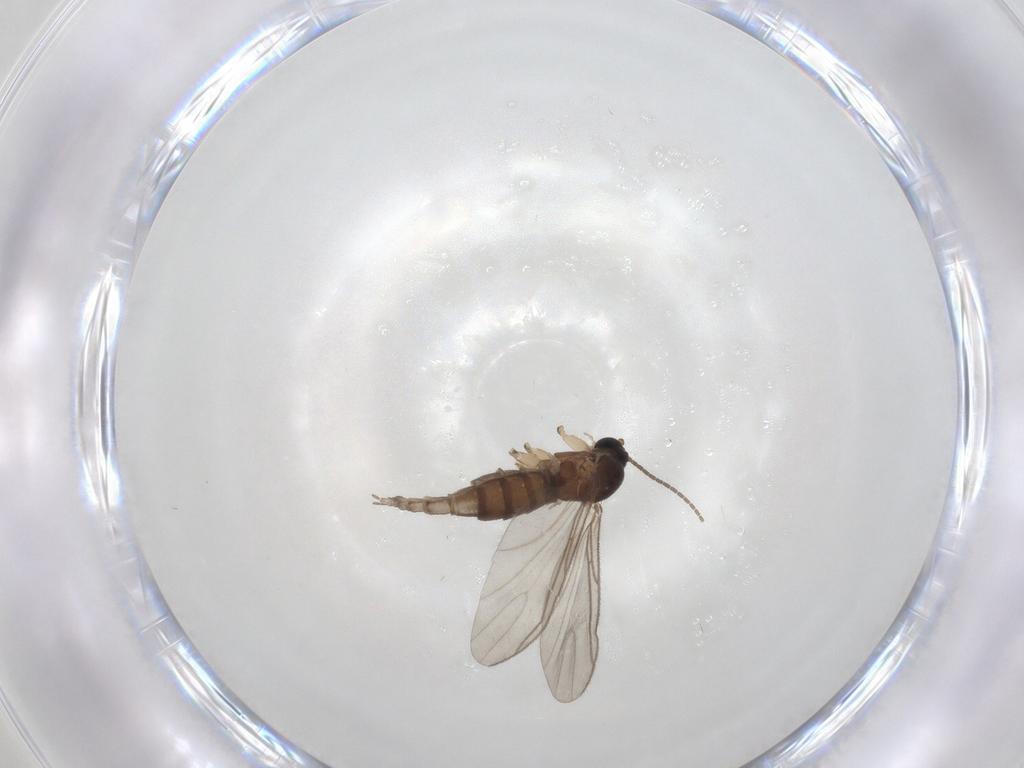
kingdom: Animalia
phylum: Arthropoda
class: Insecta
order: Diptera
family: Sciaridae
